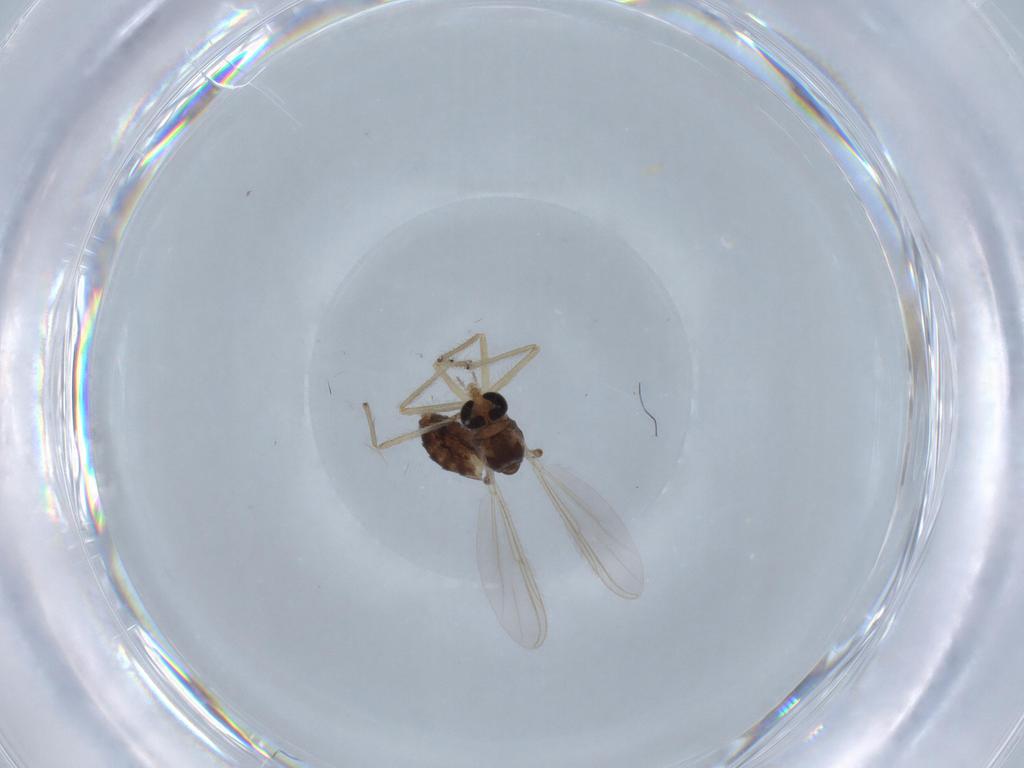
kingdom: Animalia
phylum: Arthropoda
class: Insecta
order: Diptera
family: Chironomidae
